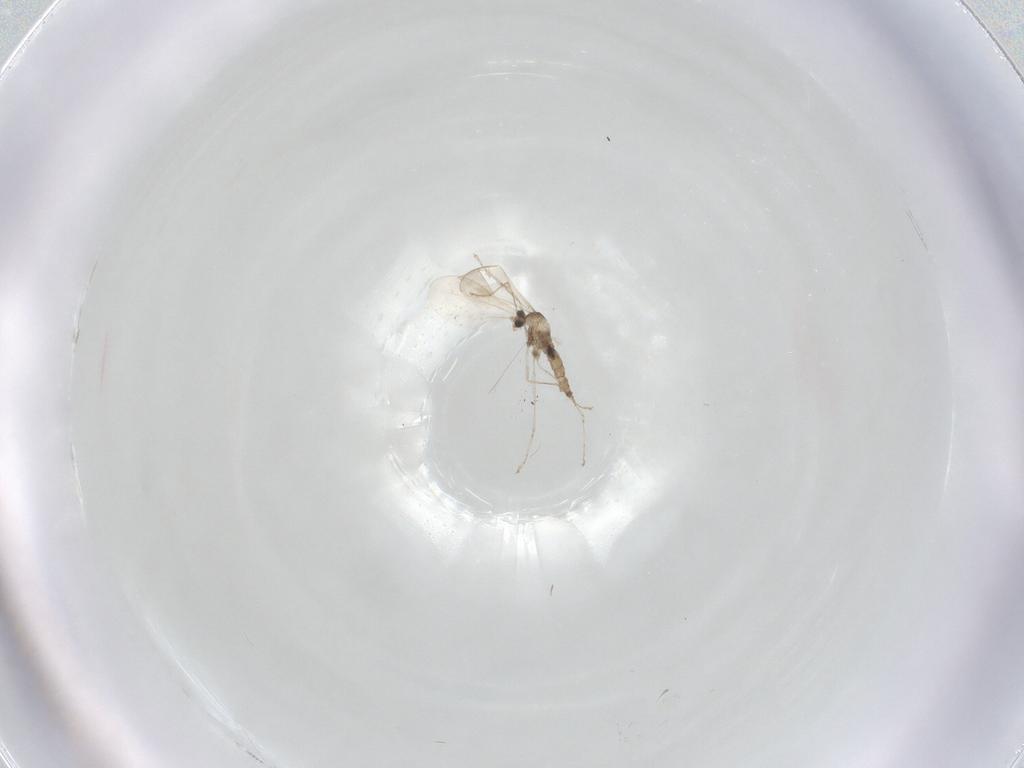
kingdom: Animalia
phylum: Arthropoda
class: Insecta
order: Diptera
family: Cecidomyiidae
